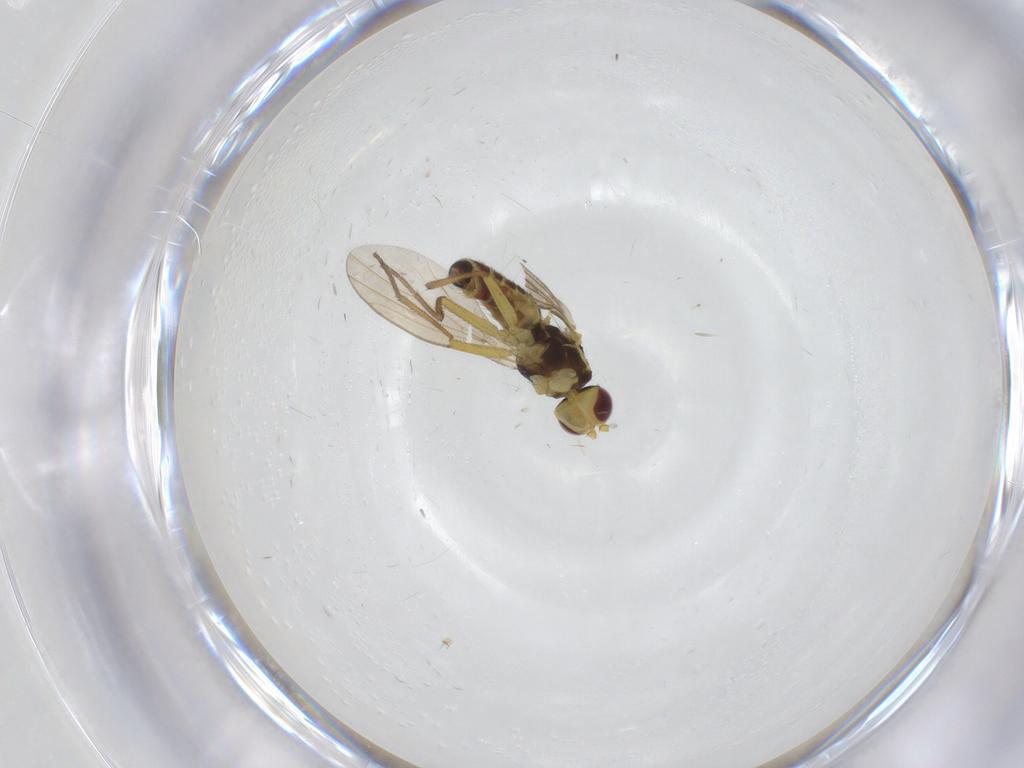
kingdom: Animalia
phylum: Arthropoda
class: Insecta
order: Diptera
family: Agromyzidae
